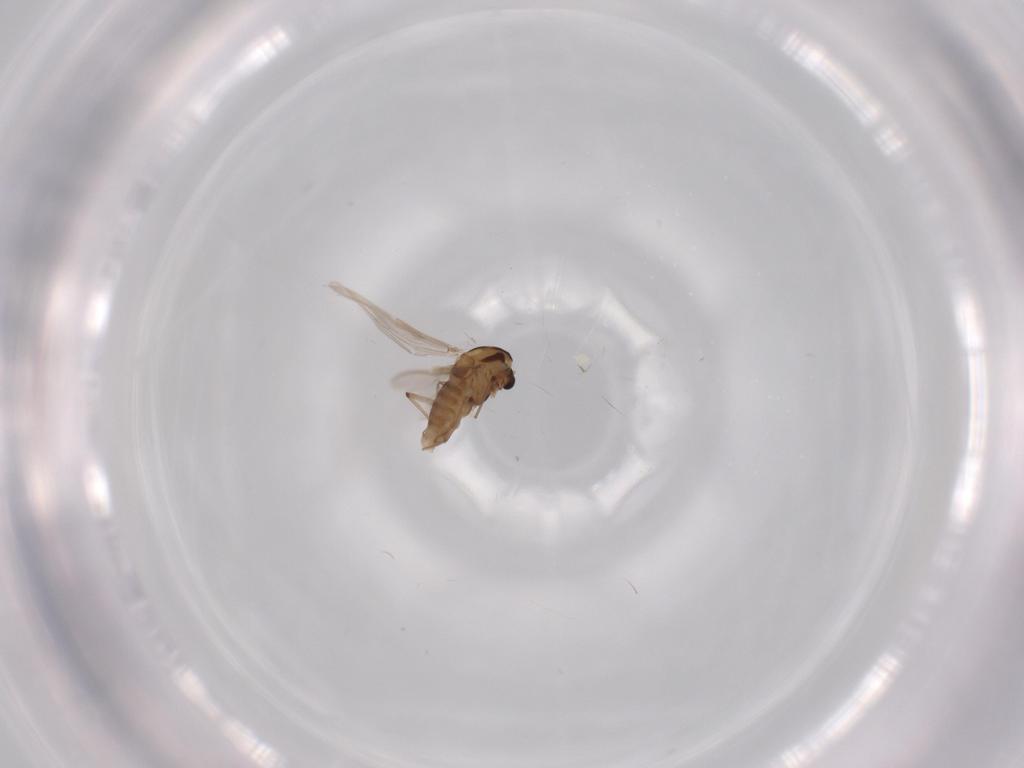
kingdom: Animalia
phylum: Arthropoda
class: Insecta
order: Diptera
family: Chironomidae
